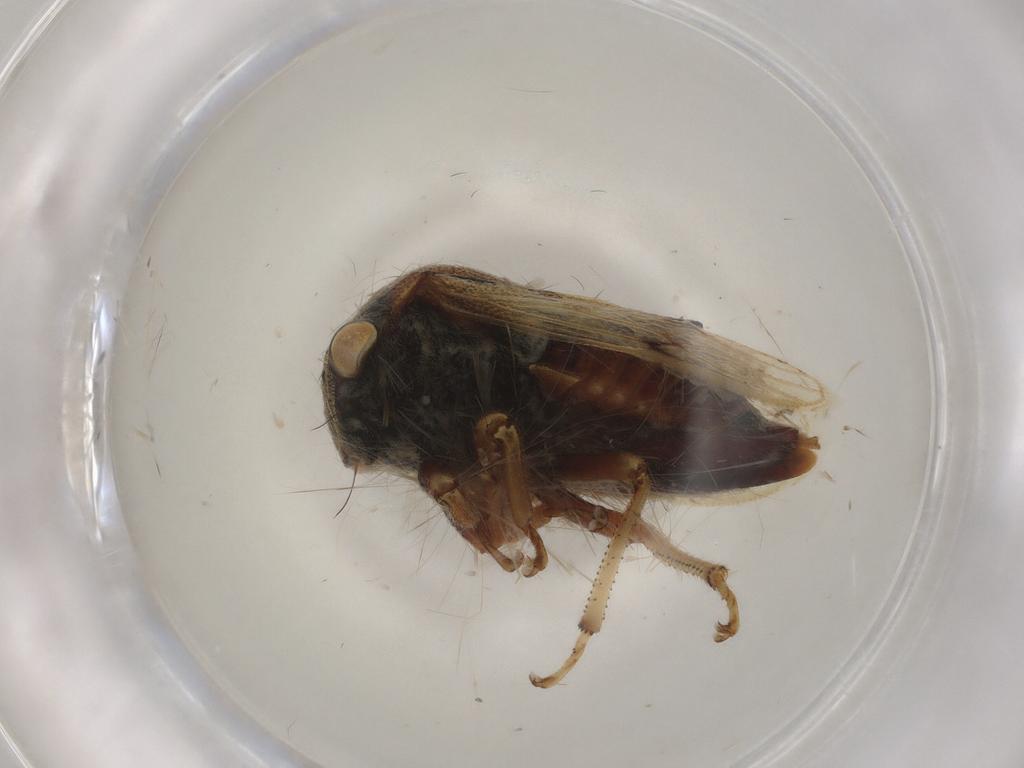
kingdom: Animalia
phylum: Arthropoda
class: Insecta
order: Hemiptera
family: Membracidae
